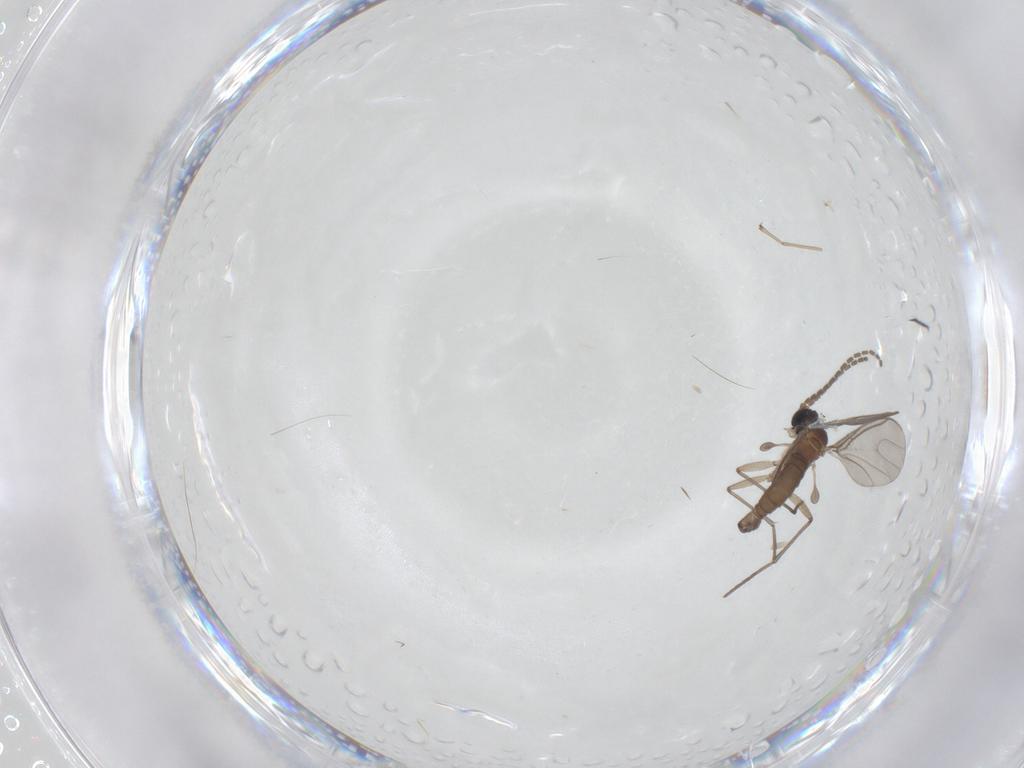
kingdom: Animalia
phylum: Arthropoda
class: Insecta
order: Diptera
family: Sciaridae
